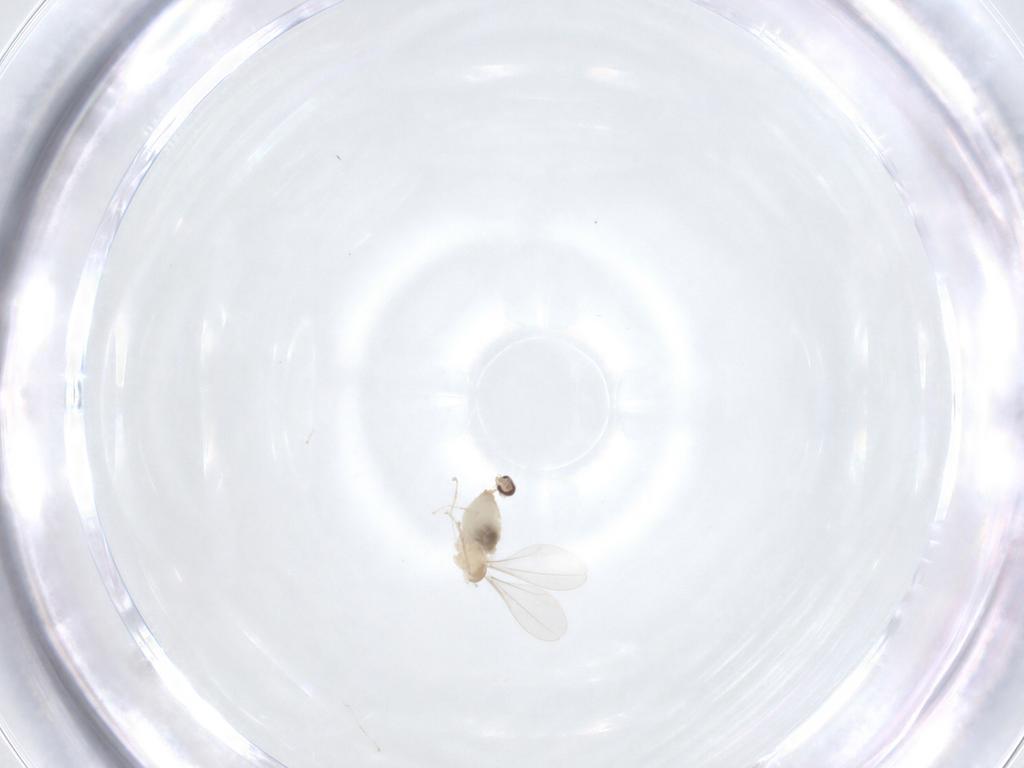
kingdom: Animalia
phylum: Arthropoda
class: Insecta
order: Diptera
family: Cecidomyiidae
